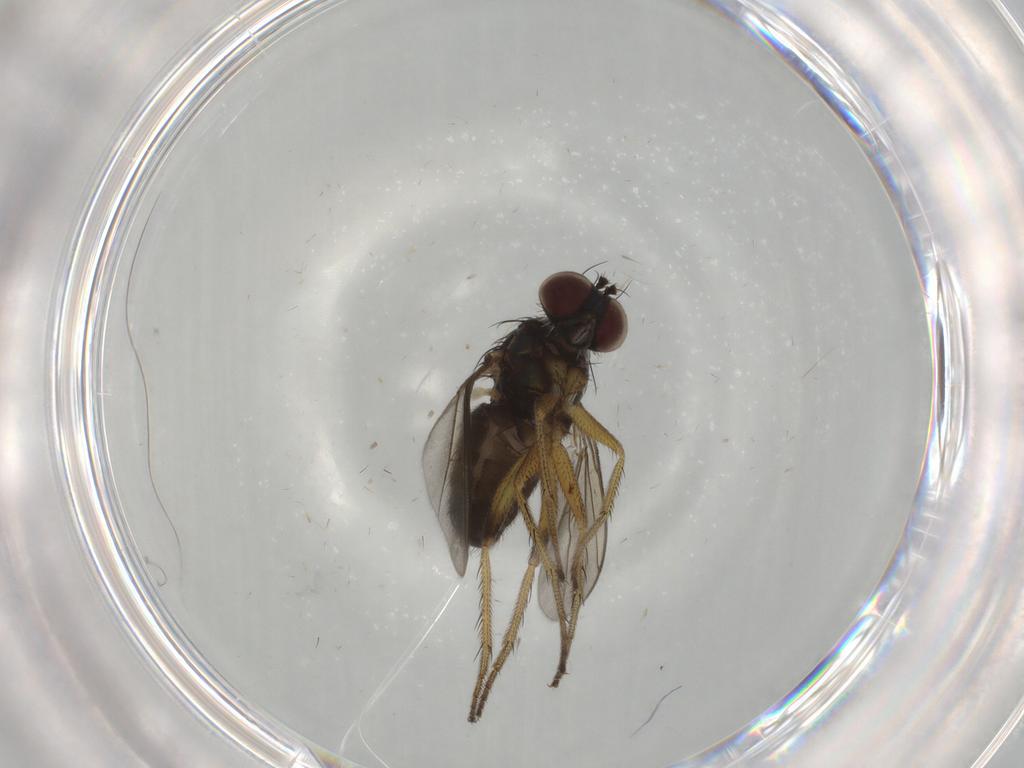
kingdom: Animalia
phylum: Arthropoda
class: Insecta
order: Diptera
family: Dolichopodidae
